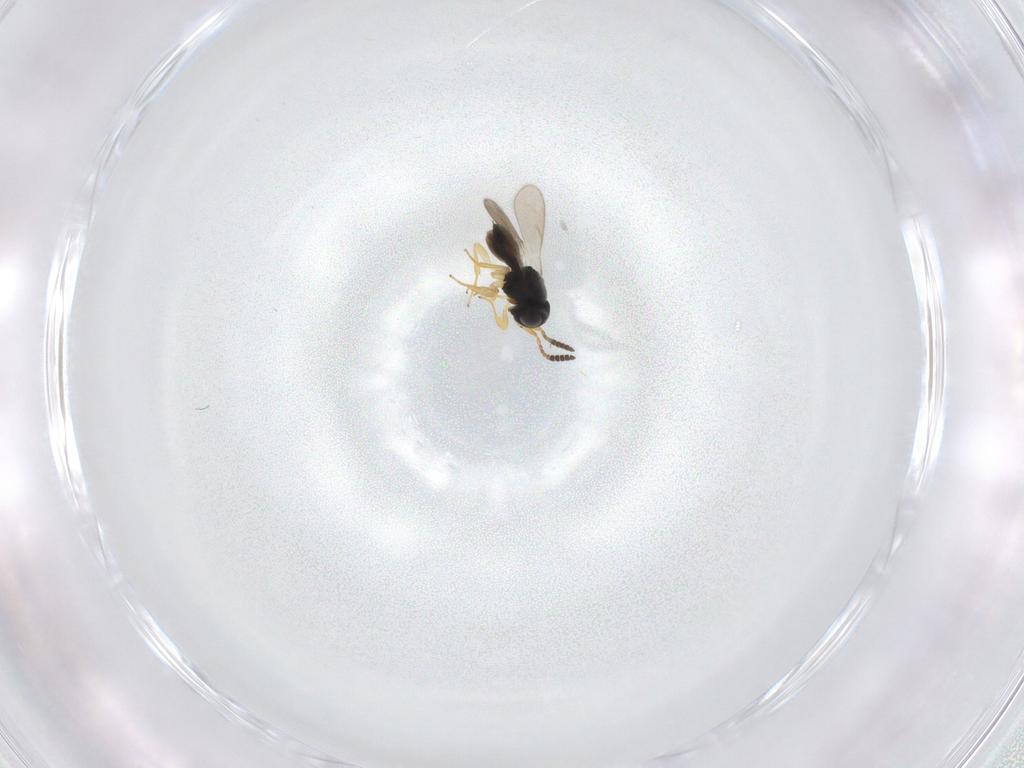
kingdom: Animalia
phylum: Arthropoda
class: Insecta
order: Hymenoptera
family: Scelionidae
